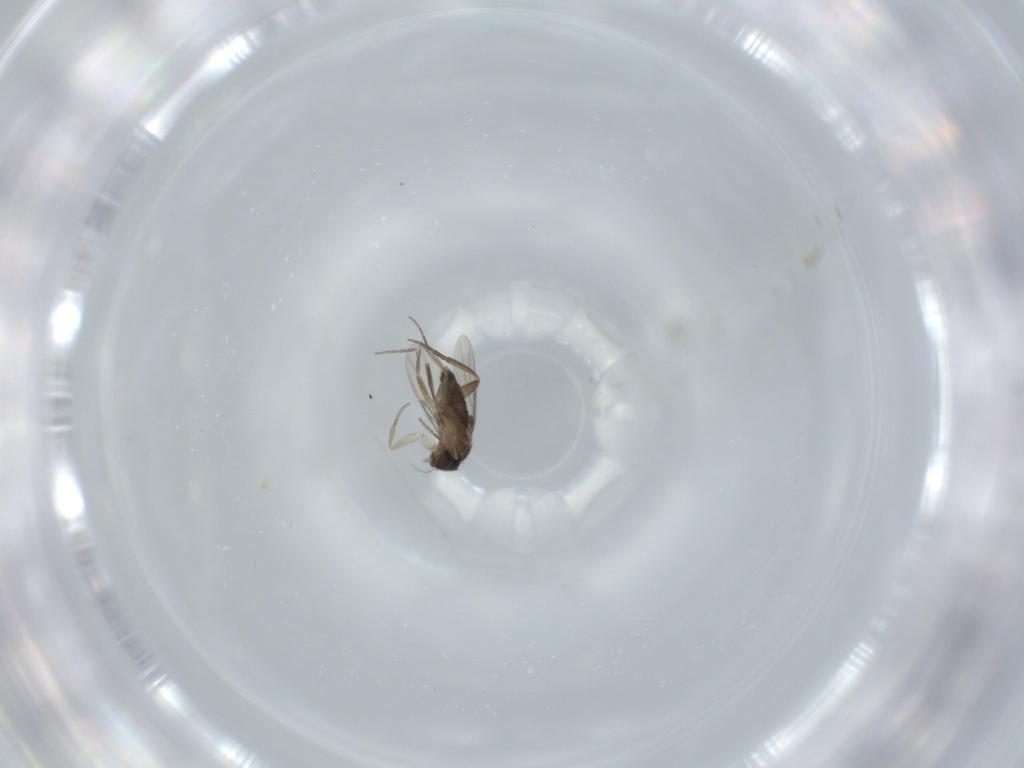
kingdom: Animalia
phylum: Arthropoda
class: Insecta
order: Diptera
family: Phoridae
